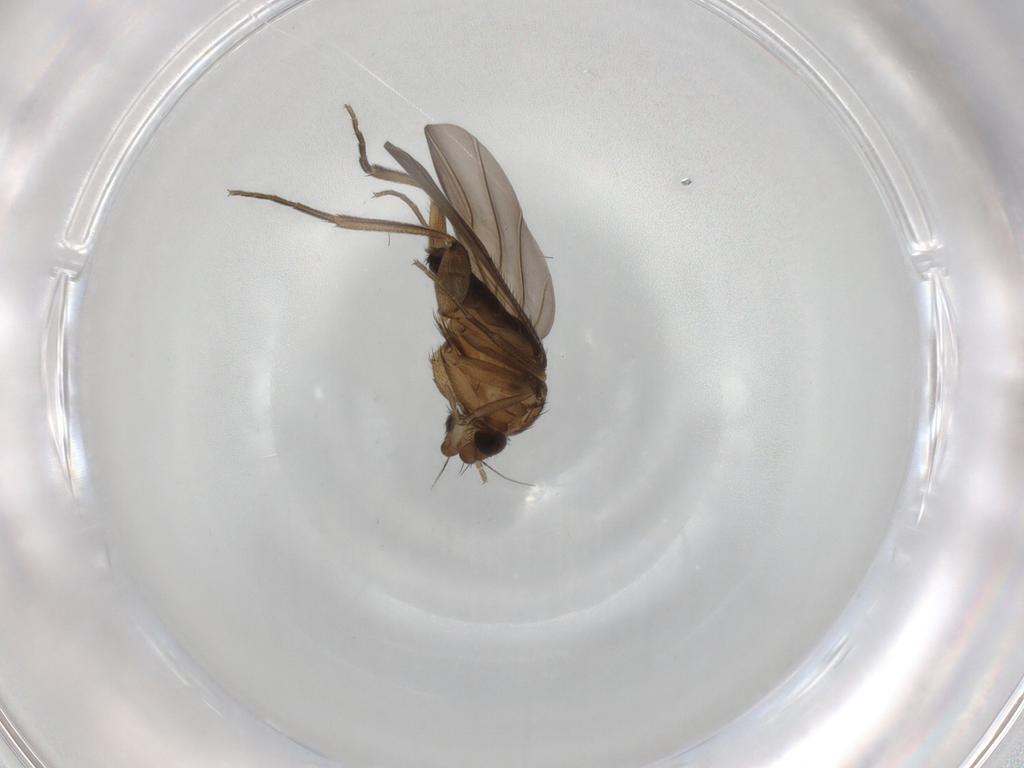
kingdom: Animalia
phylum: Arthropoda
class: Insecta
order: Diptera
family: Phoridae
